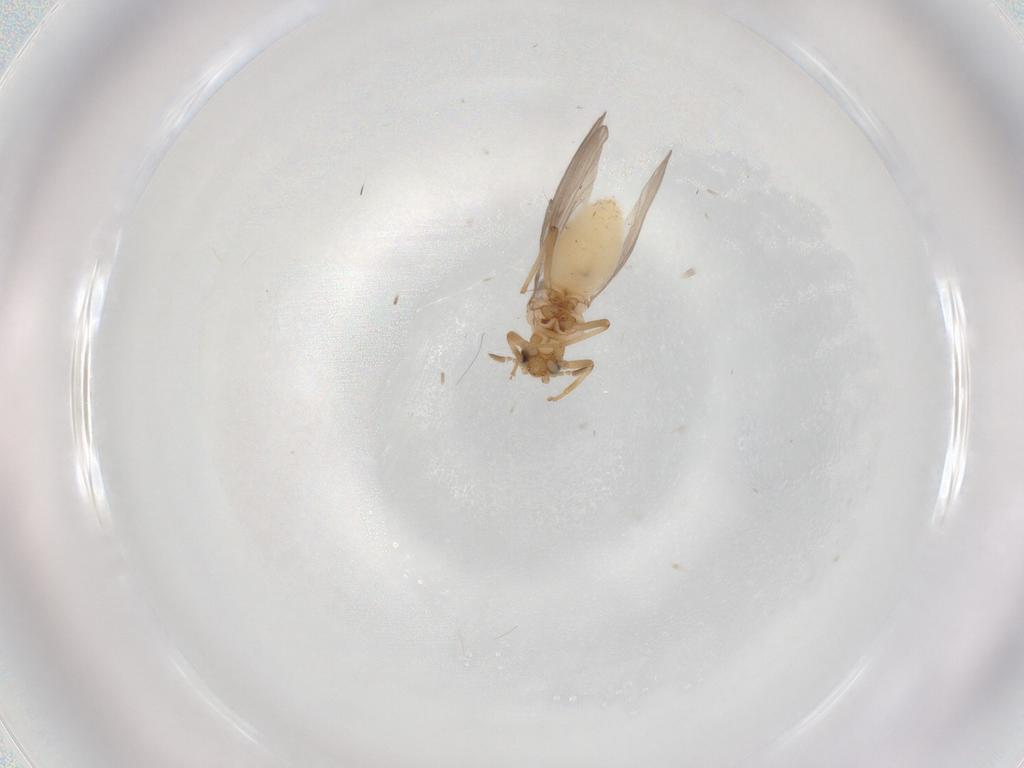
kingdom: Animalia
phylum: Arthropoda
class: Insecta
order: Neuroptera
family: Coniopterygidae
